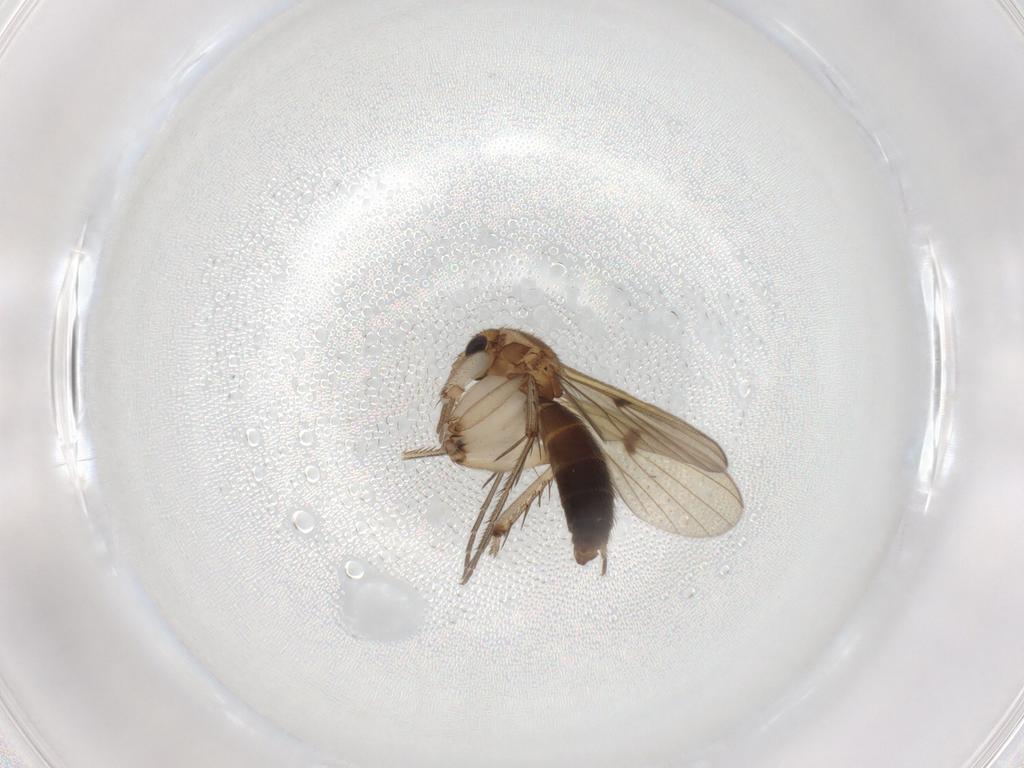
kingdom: Animalia
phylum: Arthropoda
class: Insecta
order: Diptera
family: Mycetophilidae
